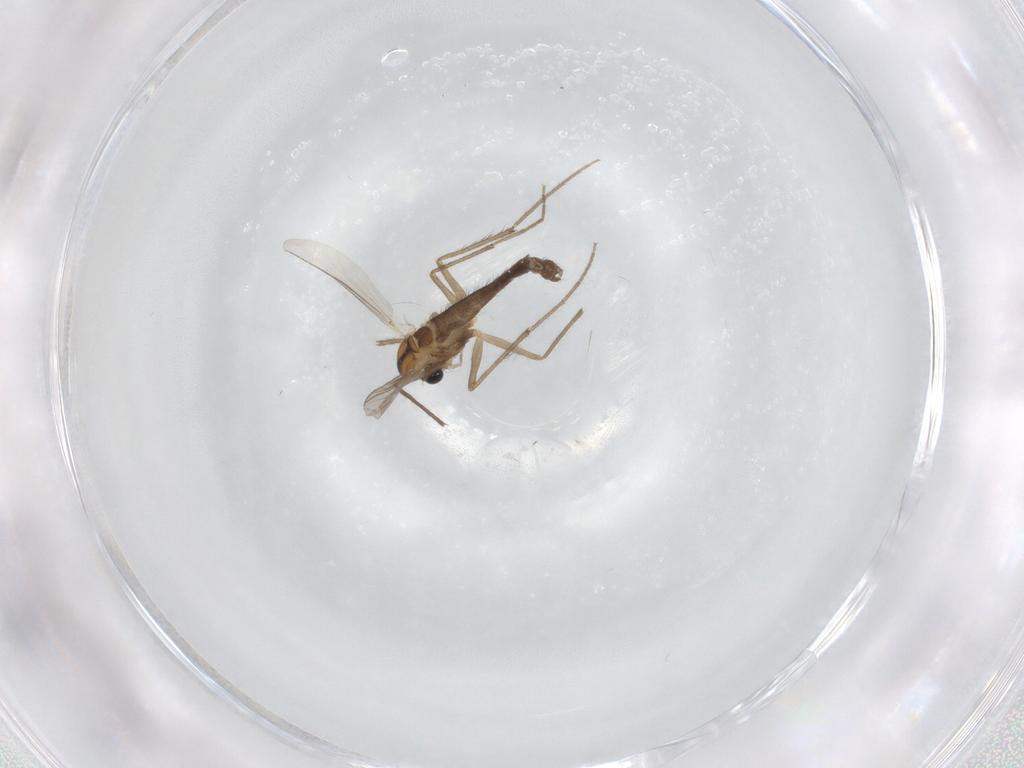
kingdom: Animalia
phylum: Arthropoda
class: Insecta
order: Diptera
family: Chironomidae
